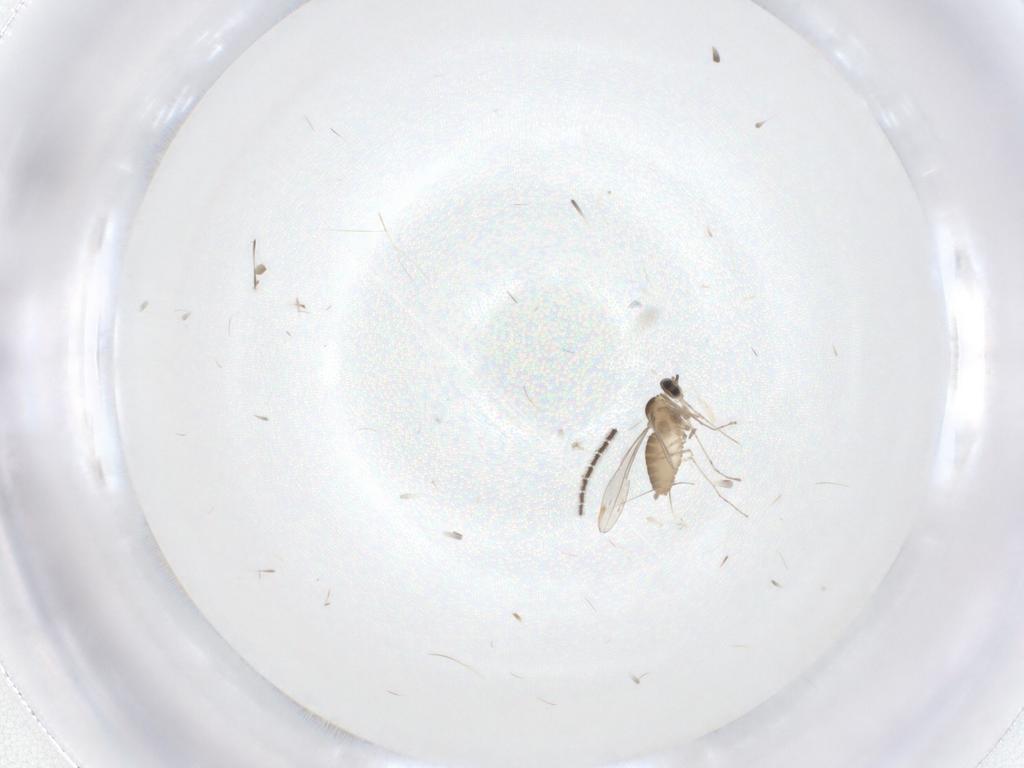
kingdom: Animalia
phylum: Arthropoda
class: Insecta
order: Diptera
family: Cecidomyiidae
